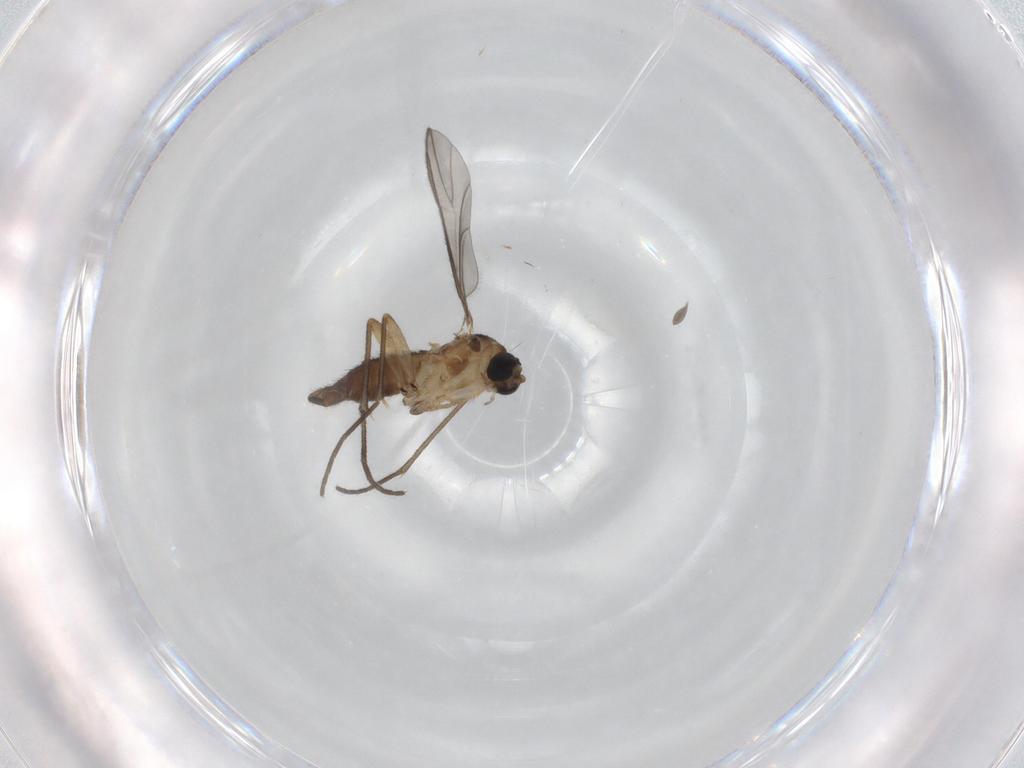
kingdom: Animalia
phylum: Arthropoda
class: Insecta
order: Diptera
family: Sciaridae
